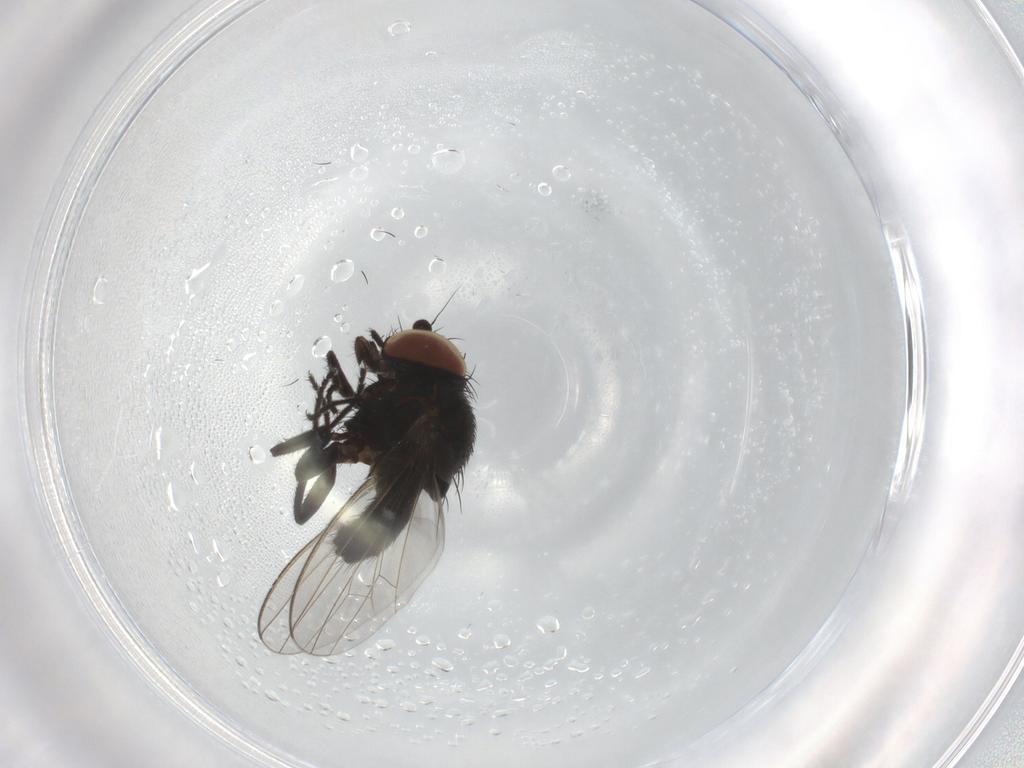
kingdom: Animalia
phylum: Arthropoda
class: Insecta
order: Diptera
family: Milichiidae
